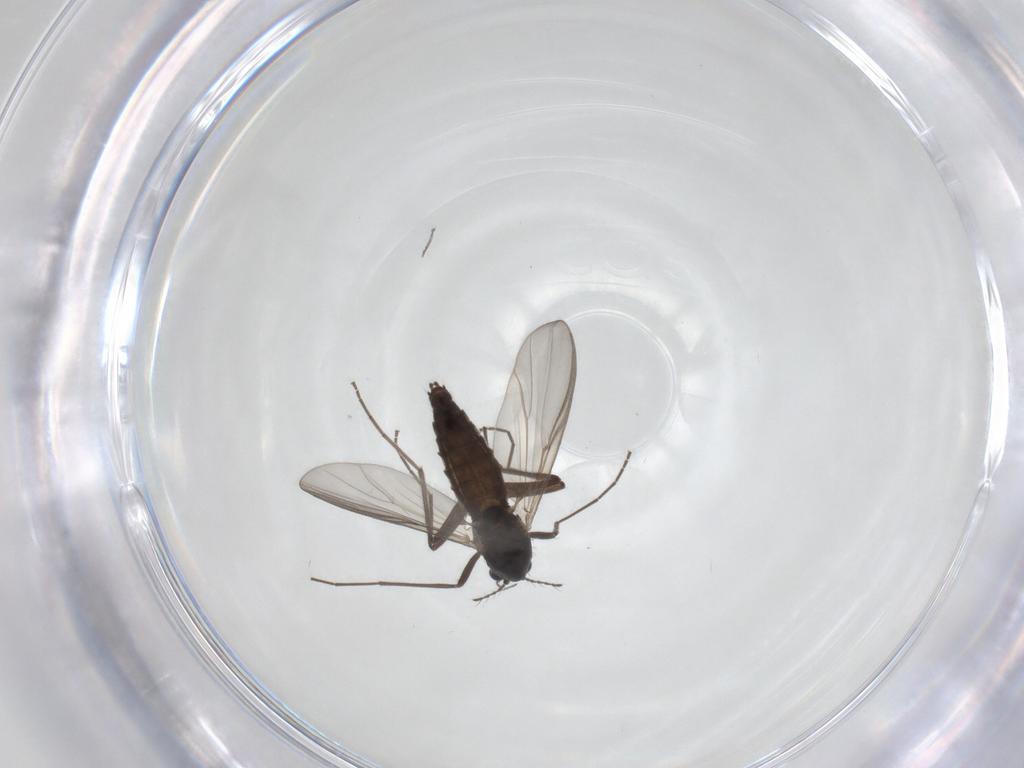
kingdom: Animalia
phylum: Arthropoda
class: Insecta
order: Diptera
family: Chironomidae
